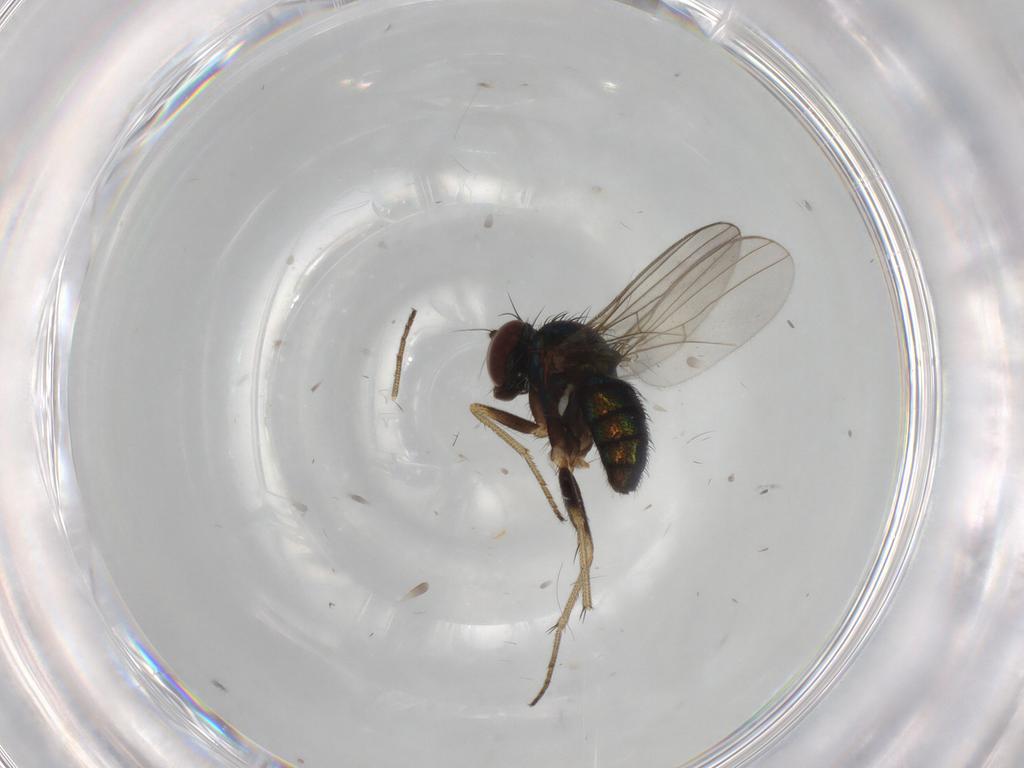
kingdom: Animalia
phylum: Arthropoda
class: Insecta
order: Diptera
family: Dolichopodidae
